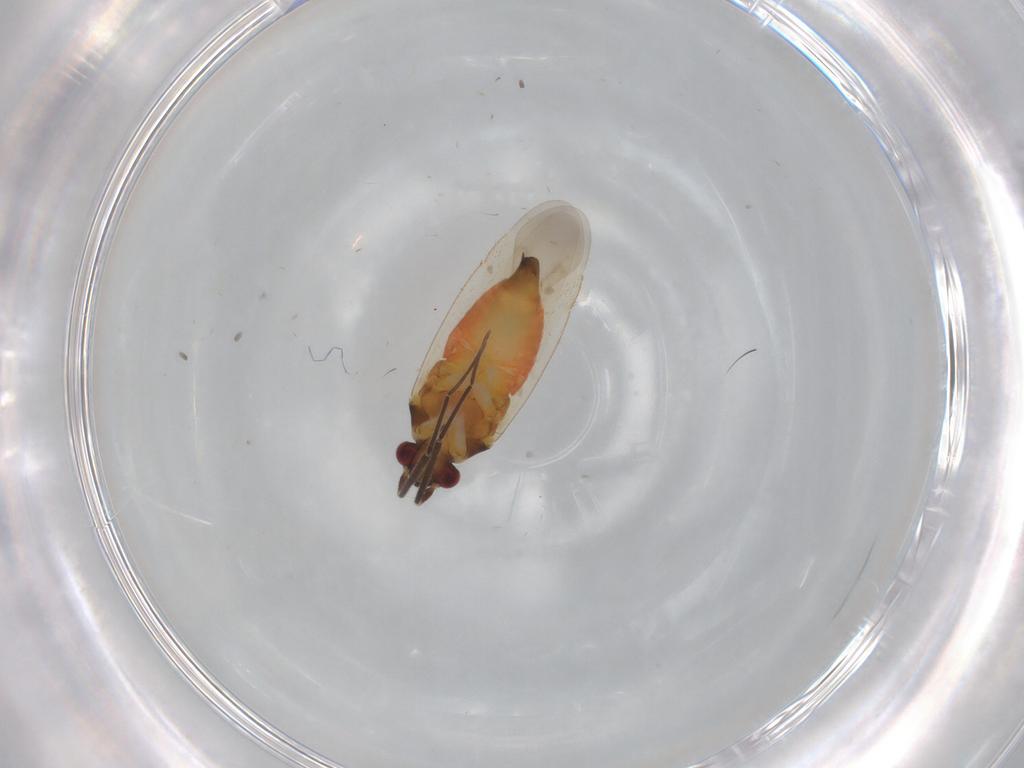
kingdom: Animalia
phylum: Arthropoda
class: Insecta
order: Hemiptera
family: Miridae
